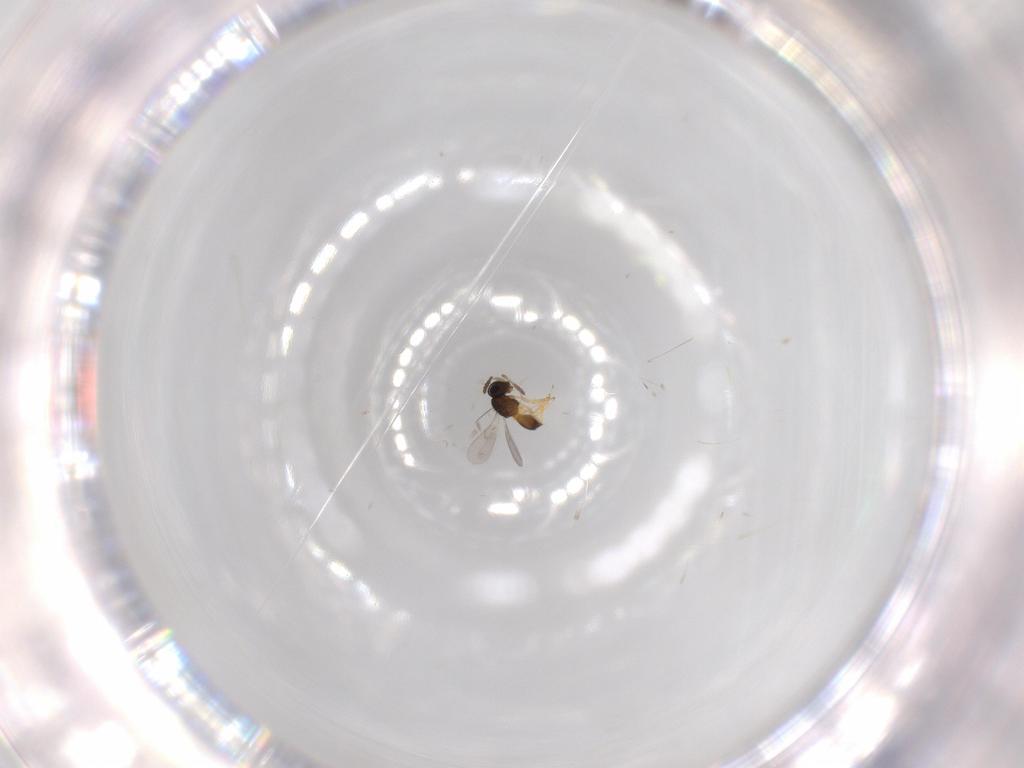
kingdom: Animalia
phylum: Arthropoda
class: Insecta
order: Hymenoptera
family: Scelionidae
